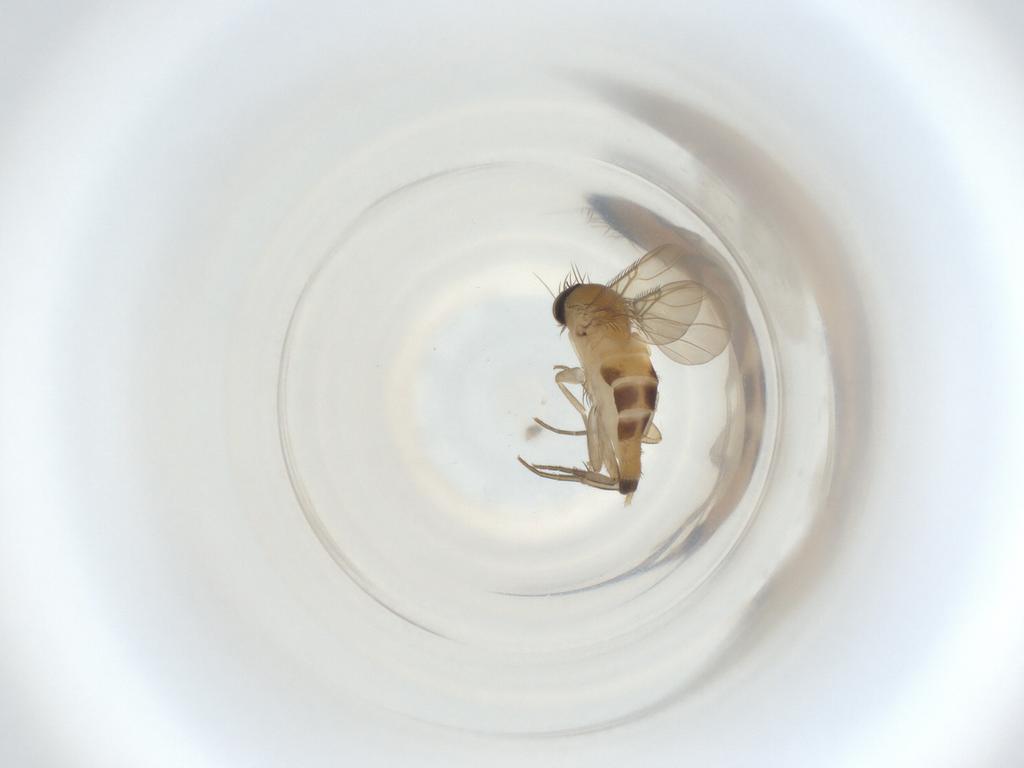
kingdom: Animalia
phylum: Arthropoda
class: Insecta
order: Diptera
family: Phoridae
